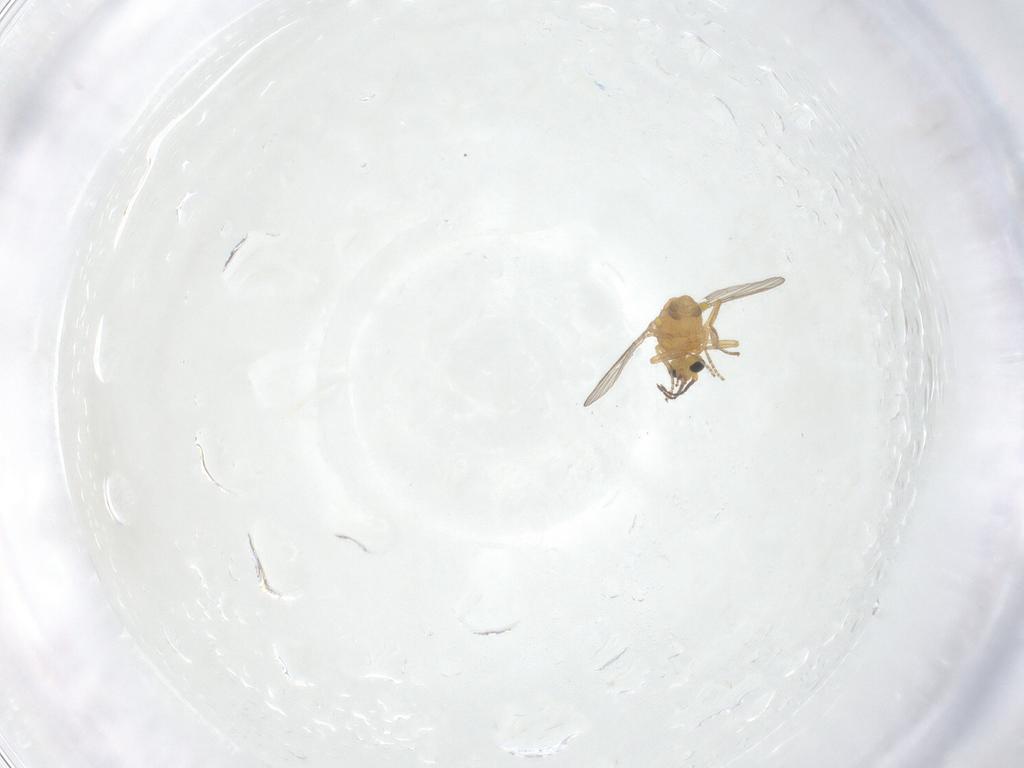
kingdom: Animalia
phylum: Arthropoda
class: Insecta
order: Diptera
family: Ceratopogonidae
